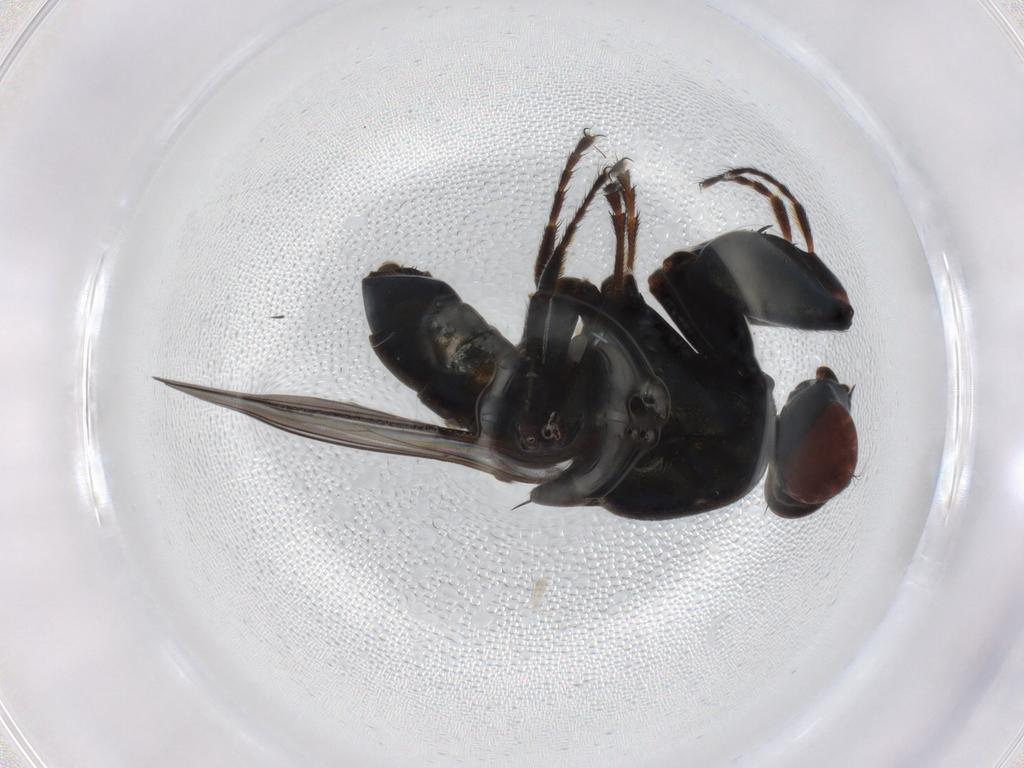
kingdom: Animalia
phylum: Arthropoda
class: Insecta
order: Diptera
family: Ephydridae
